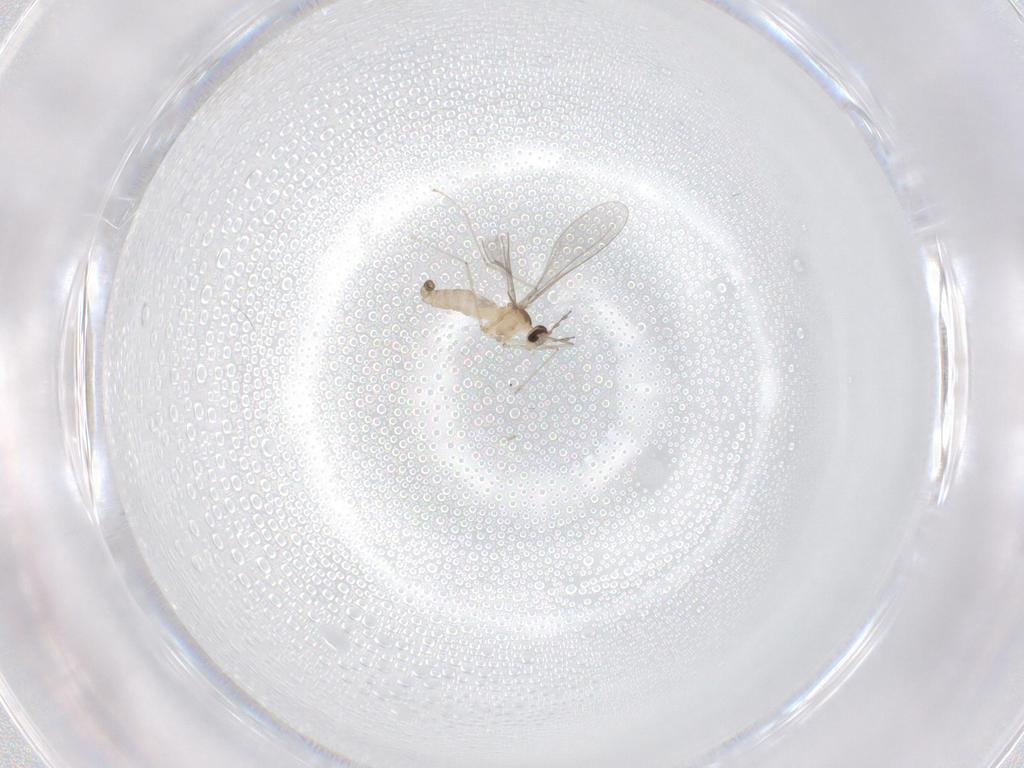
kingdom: Animalia
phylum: Arthropoda
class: Insecta
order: Diptera
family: Cecidomyiidae
